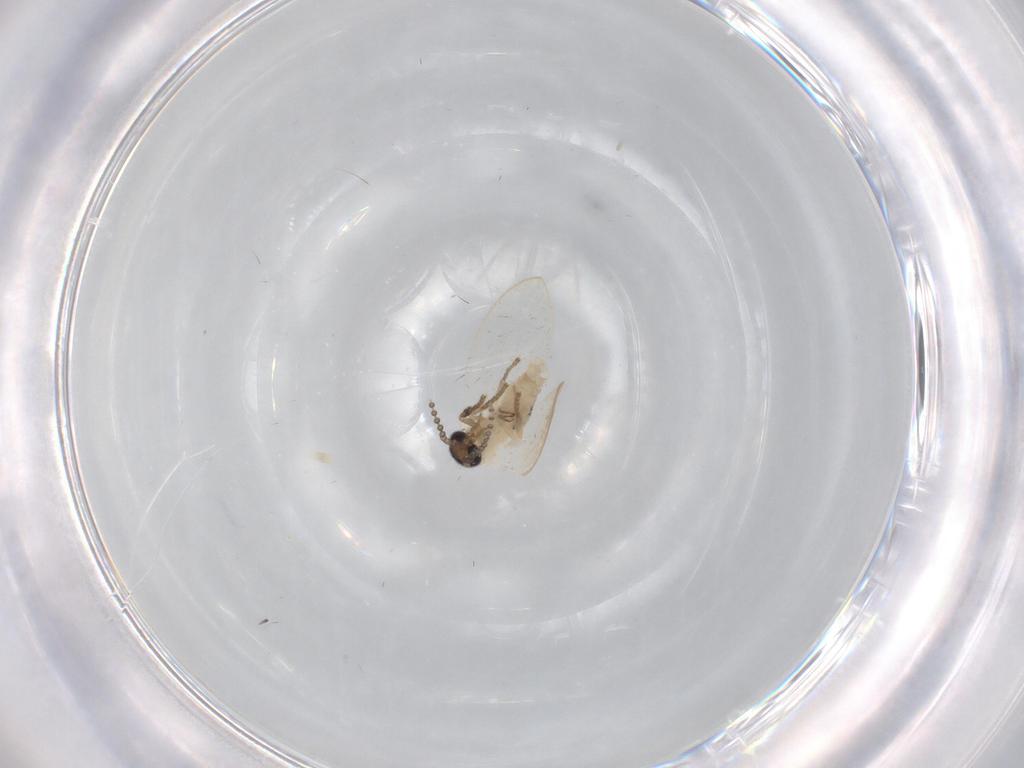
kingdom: Animalia
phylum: Arthropoda
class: Insecta
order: Diptera
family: Psychodidae
